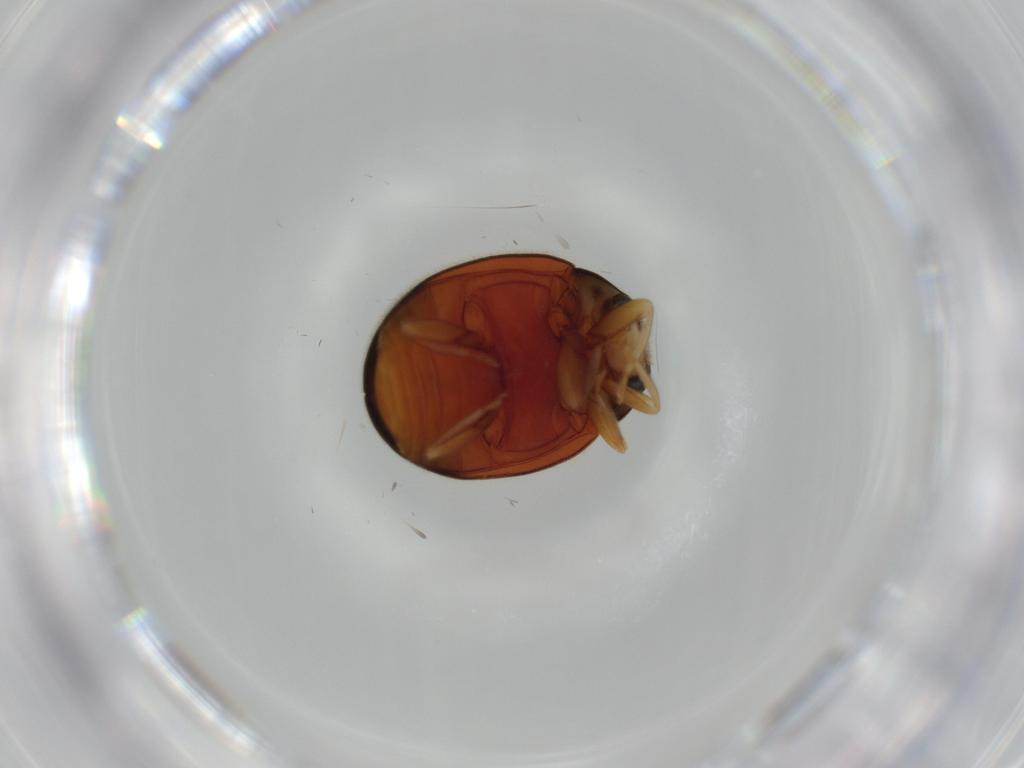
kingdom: Animalia
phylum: Arthropoda
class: Insecta
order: Coleoptera
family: Coccinellidae
